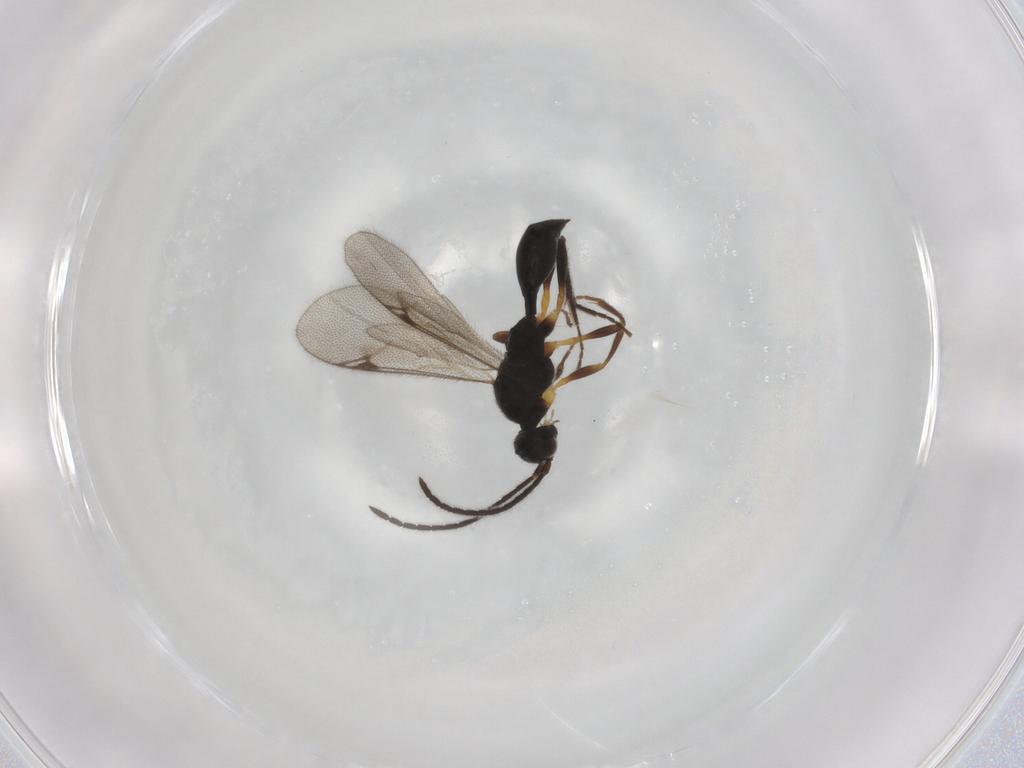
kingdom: Animalia
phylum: Arthropoda
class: Insecta
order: Hymenoptera
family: Proctotrupidae
